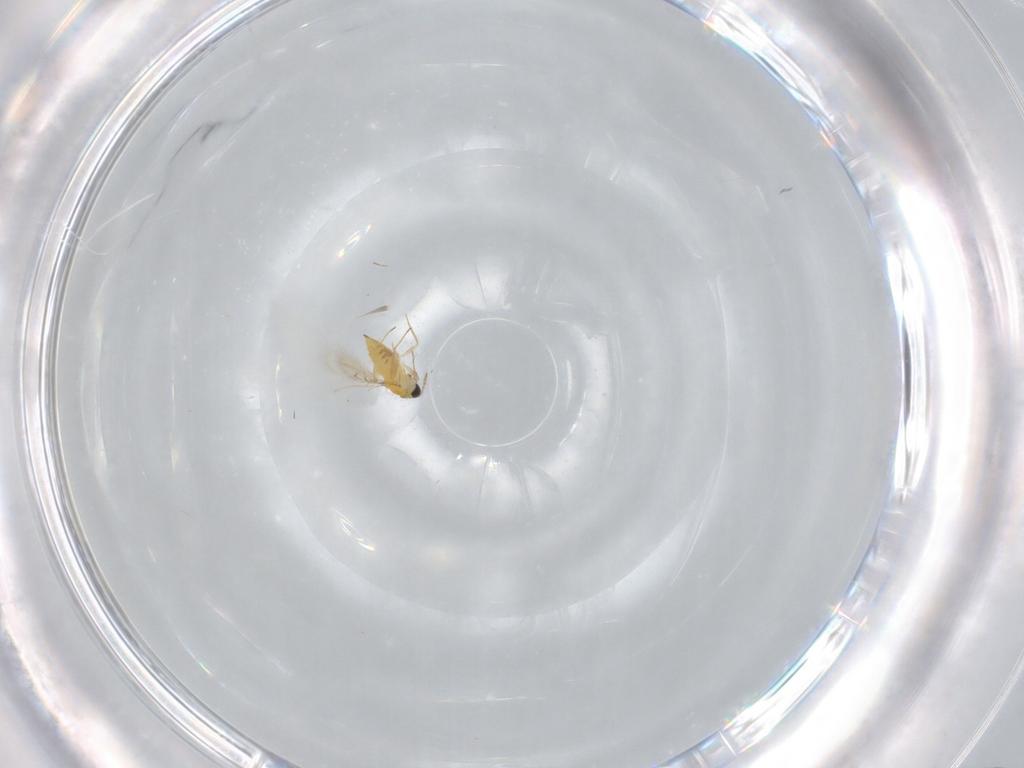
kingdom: Animalia
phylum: Arthropoda
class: Insecta
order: Hymenoptera
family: Trichogrammatidae
